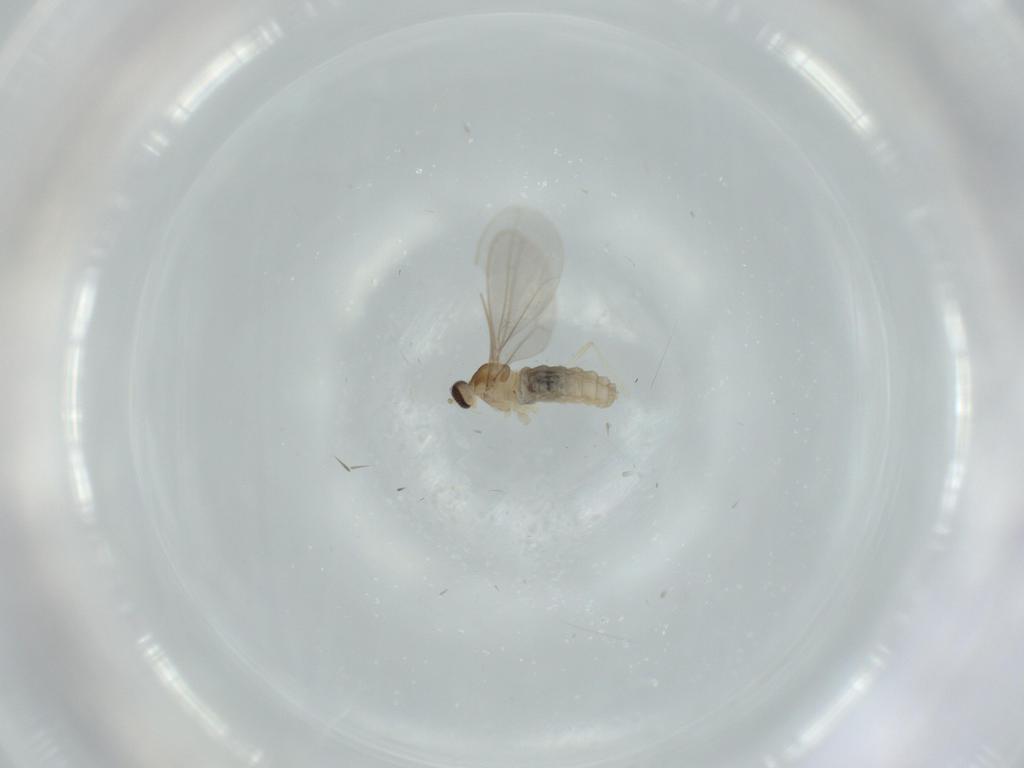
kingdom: Animalia
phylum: Arthropoda
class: Insecta
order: Diptera
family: Cecidomyiidae
